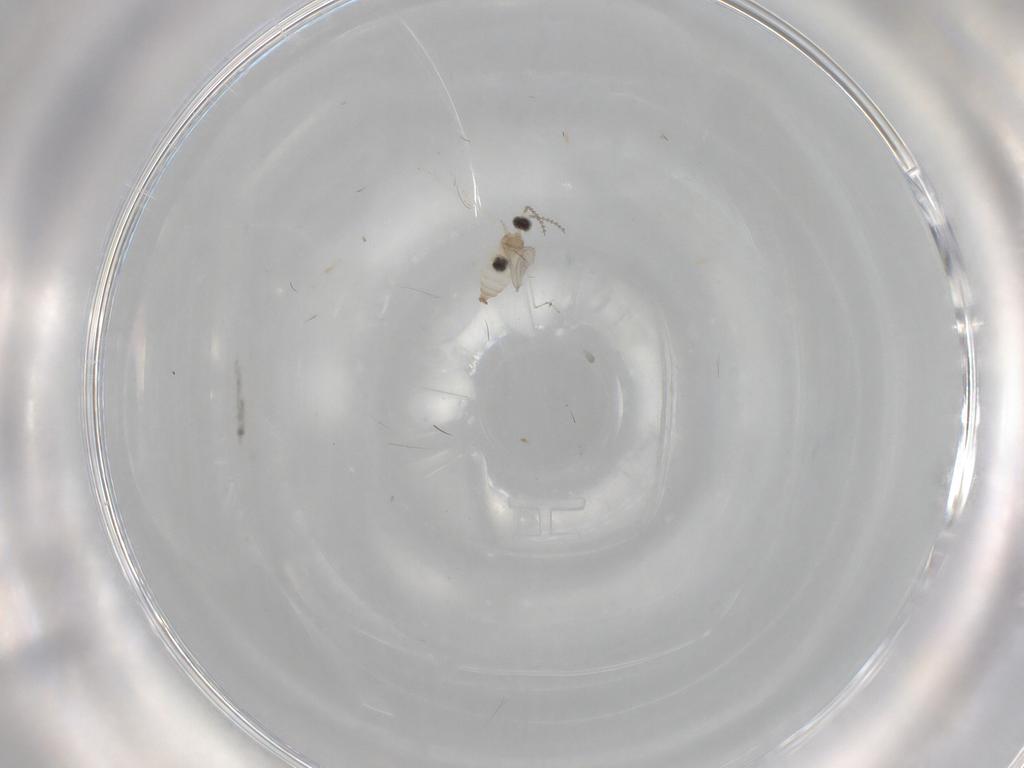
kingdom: Animalia
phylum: Arthropoda
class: Insecta
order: Diptera
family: Cecidomyiidae
